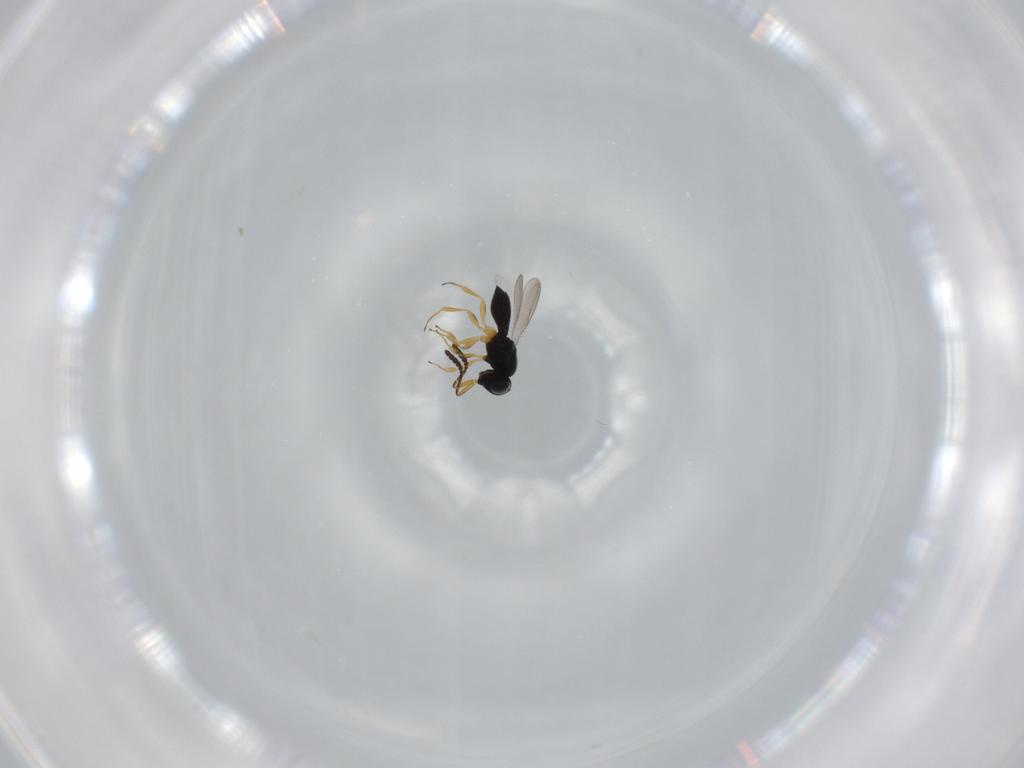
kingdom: Animalia
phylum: Arthropoda
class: Insecta
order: Hymenoptera
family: Scelionidae
